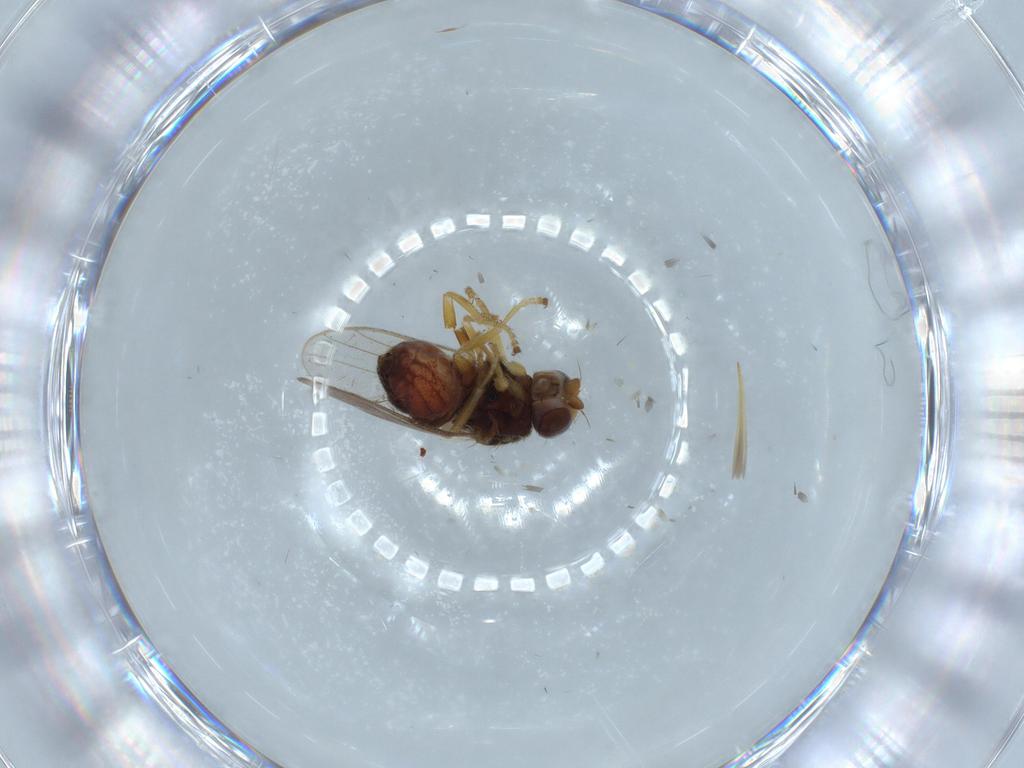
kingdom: Animalia
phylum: Arthropoda
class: Insecta
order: Diptera
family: Chloropidae
